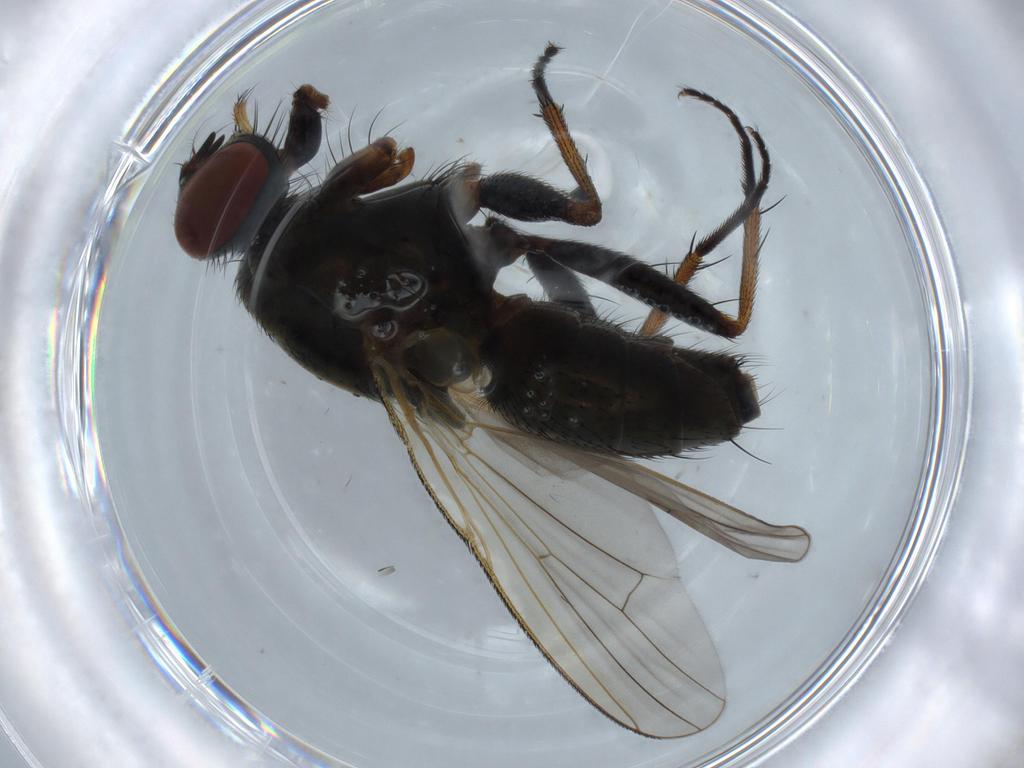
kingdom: Animalia
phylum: Arthropoda
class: Insecta
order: Diptera
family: Muscidae
